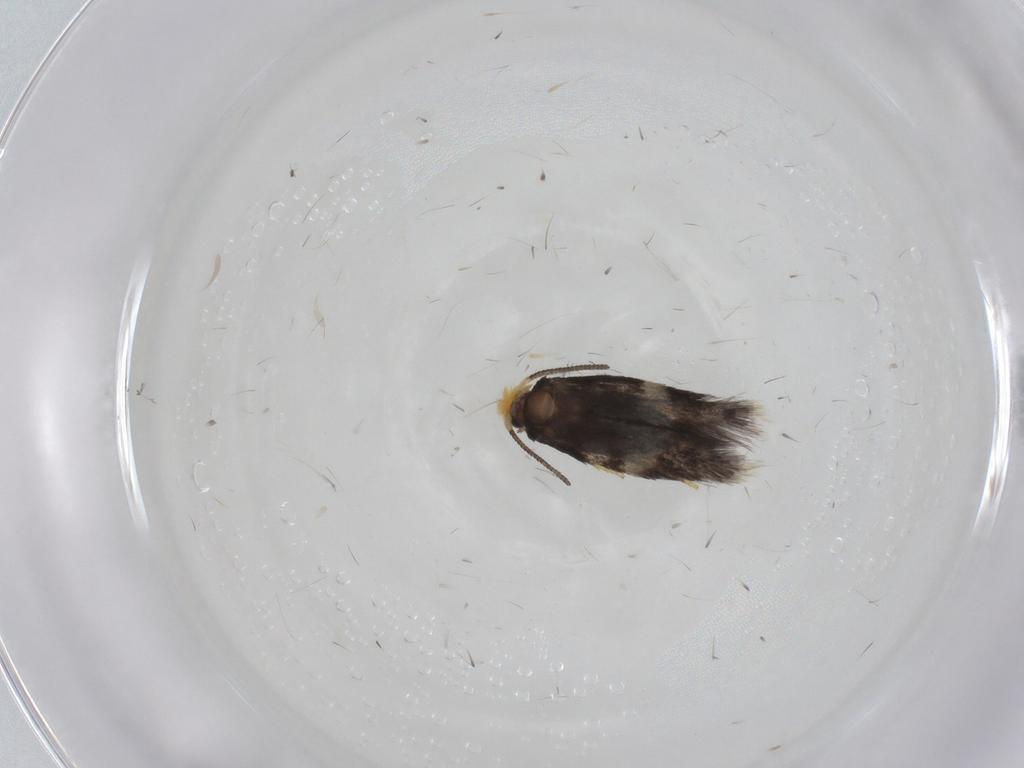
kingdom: Animalia
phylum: Arthropoda
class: Insecta
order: Lepidoptera
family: Nepticulidae
